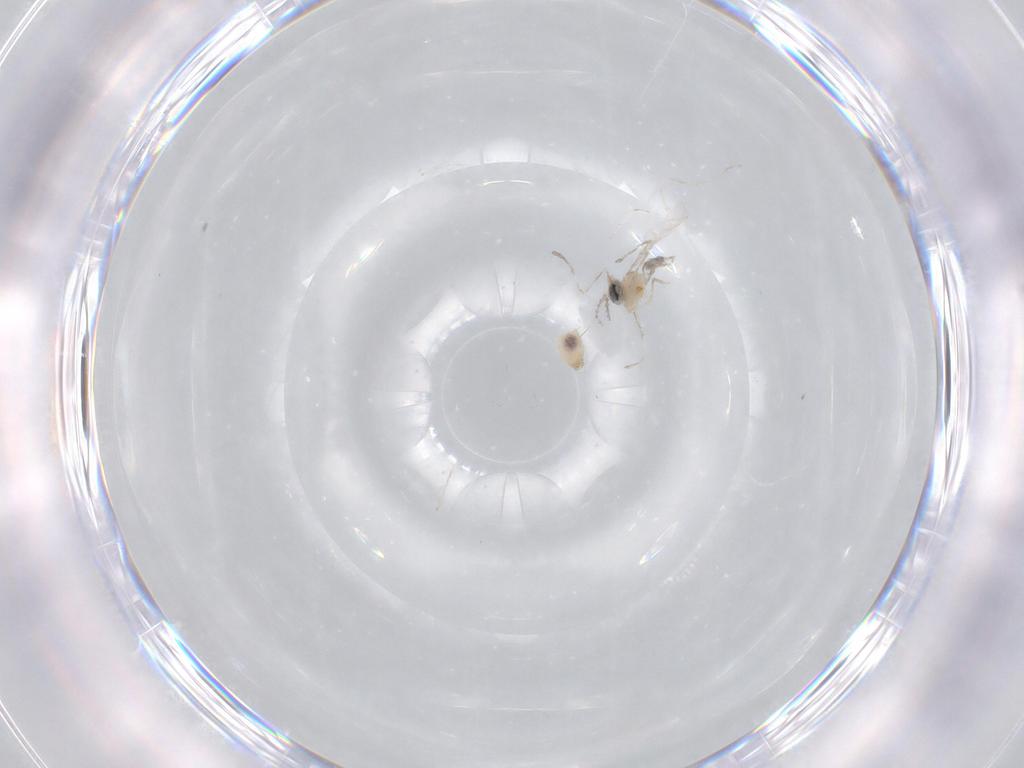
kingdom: Animalia
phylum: Arthropoda
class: Insecta
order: Diptera
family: Cecidomyiidae
